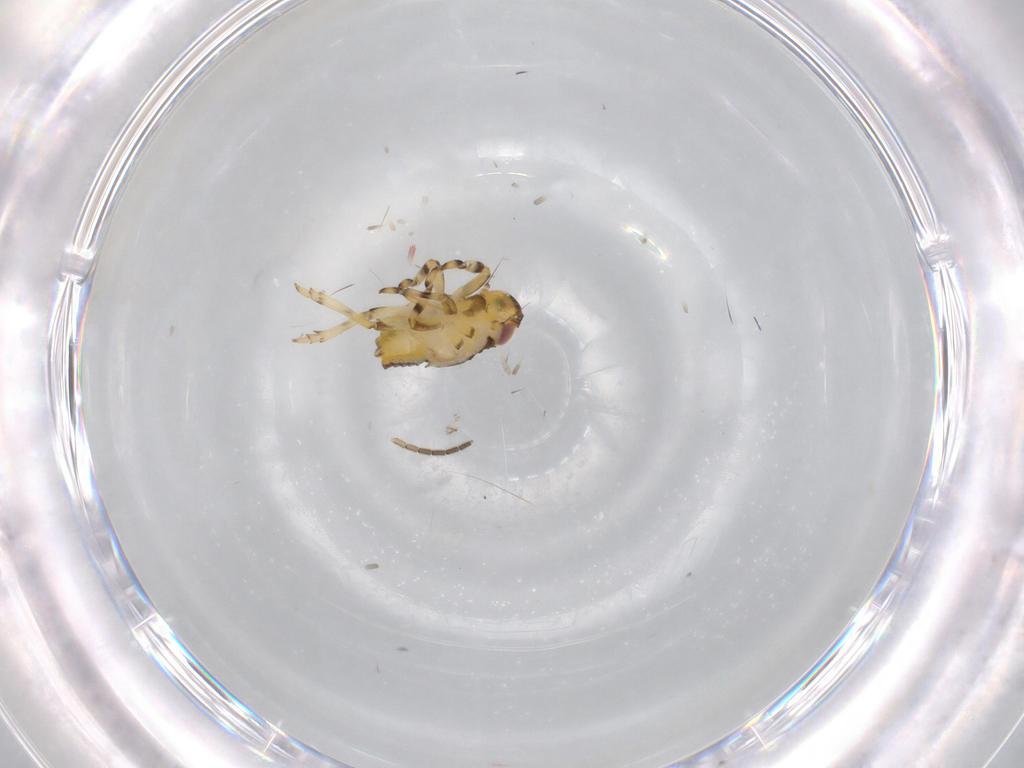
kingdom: Animalia
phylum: Arthropoda
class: Insecta
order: Hemiptera
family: Issidae
